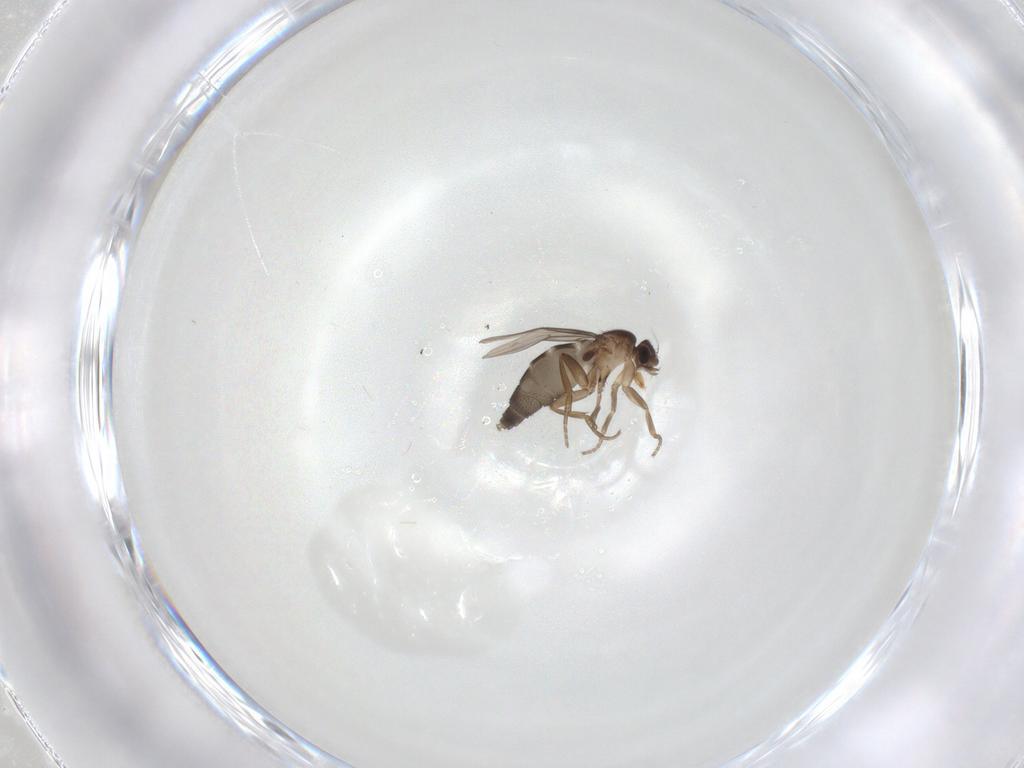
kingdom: Animalia
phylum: Arthropoda
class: Insecta
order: Diptera
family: Phoridae
